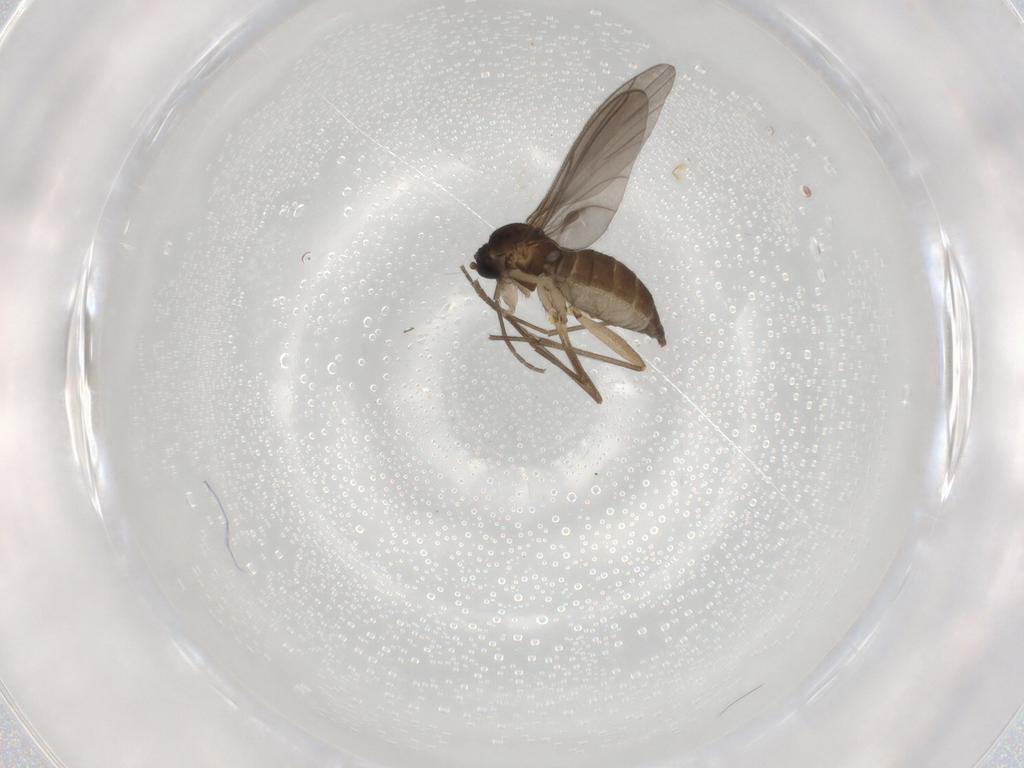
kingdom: Animalia
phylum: Arthropoda
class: Insecta
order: Diptera
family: Sciaridae
